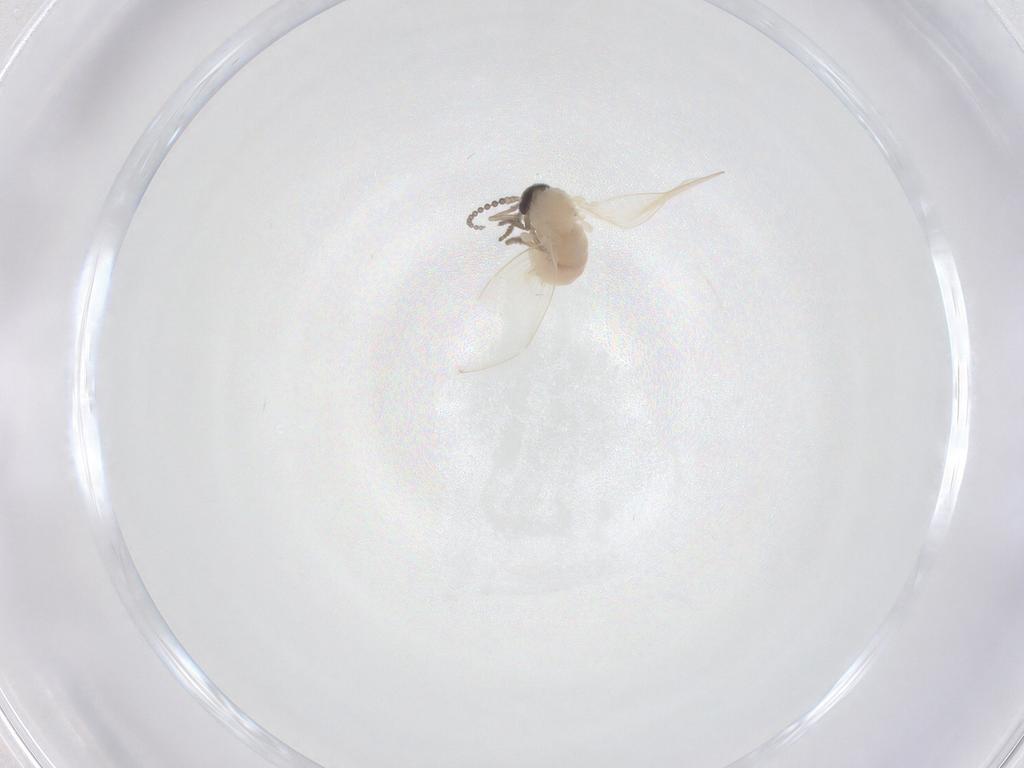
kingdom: Animalia
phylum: Arthropoda
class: Insecta
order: Diptera
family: Psychodidae
